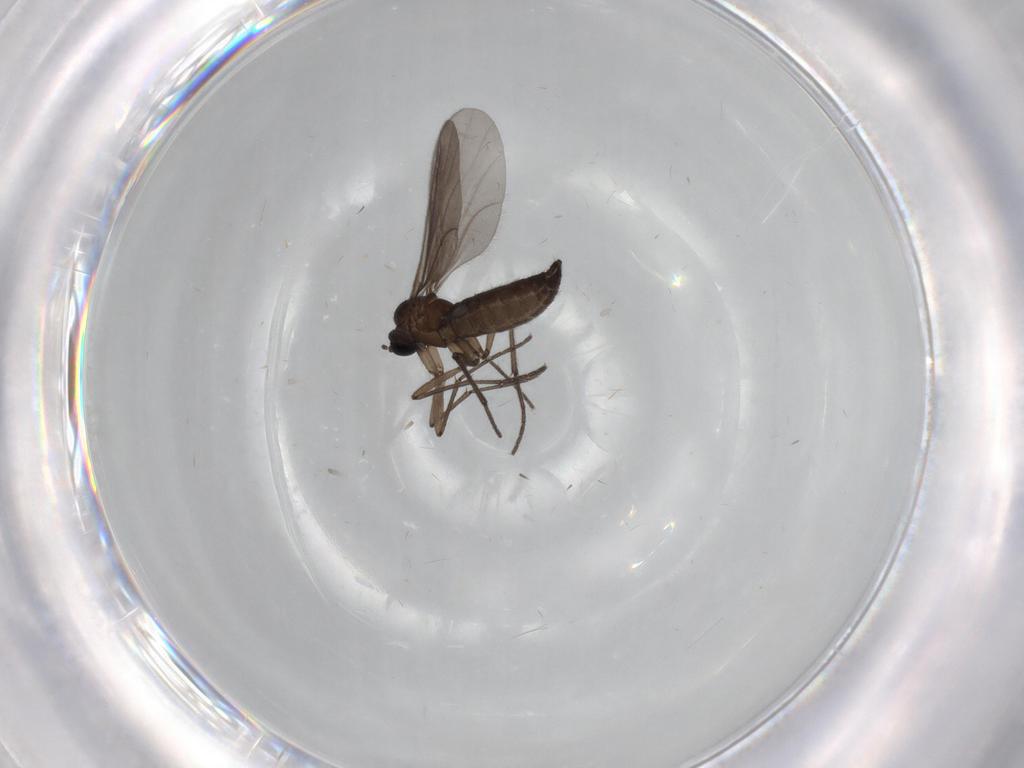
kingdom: Animalia
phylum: Arthropoda
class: Insecta
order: Diptera
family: Sciaridae
